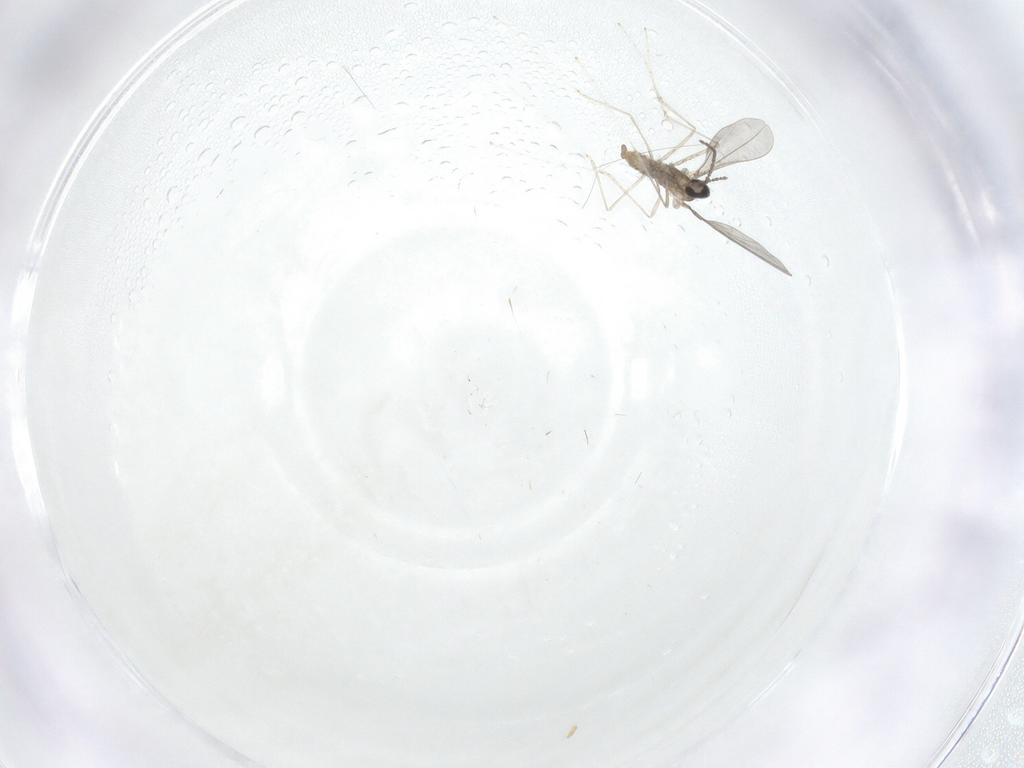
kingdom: Animalia
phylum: Arthropoda
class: Insecta
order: Diptera
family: Cecidomyiidae
